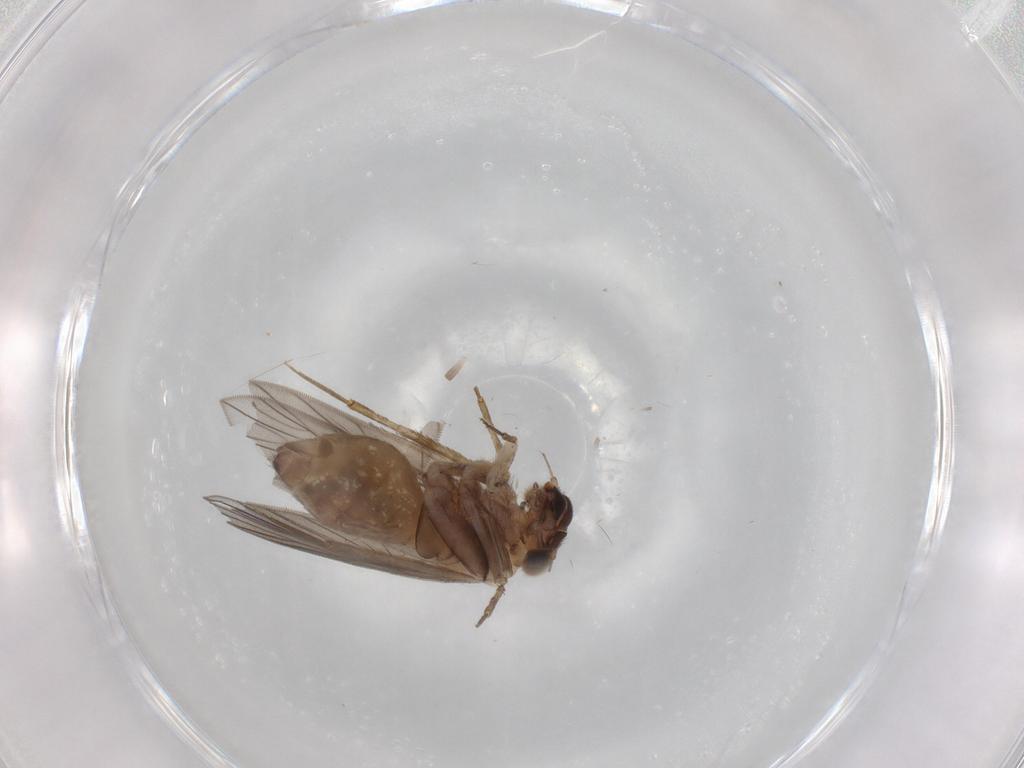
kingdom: Animalia
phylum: Arthropoda
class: Insecta
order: Psocodea
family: Lepidopsocidae
